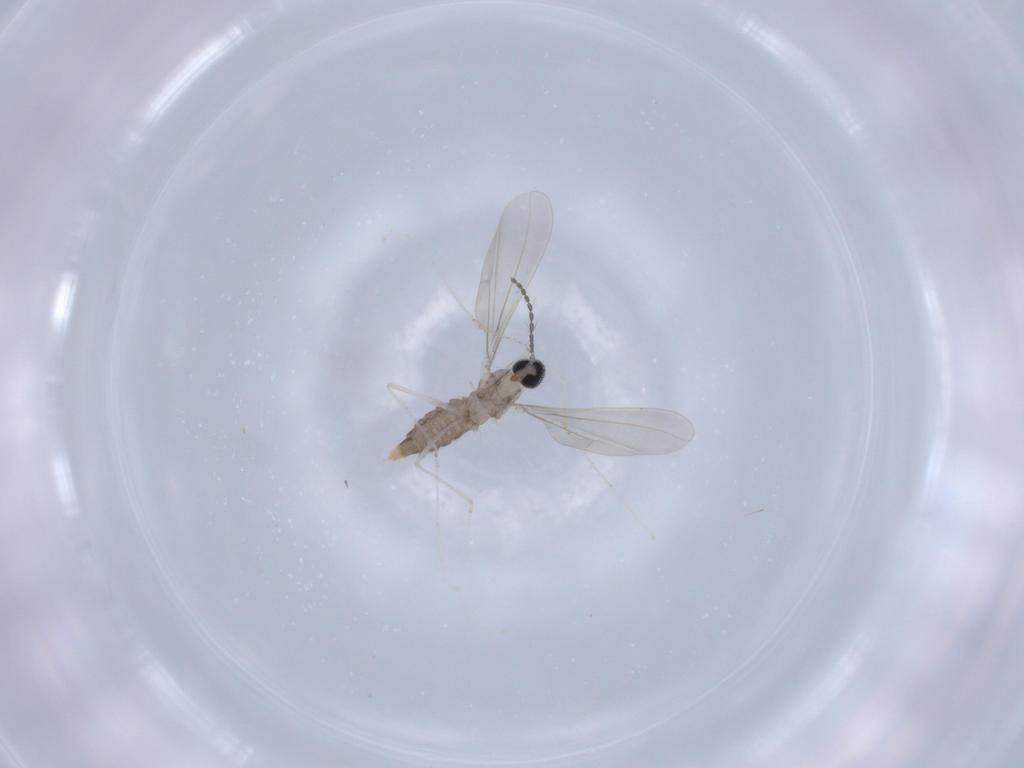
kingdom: Animalia
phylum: Arthropoda
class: Insecta
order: Diptera
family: Cecidomyiidae
